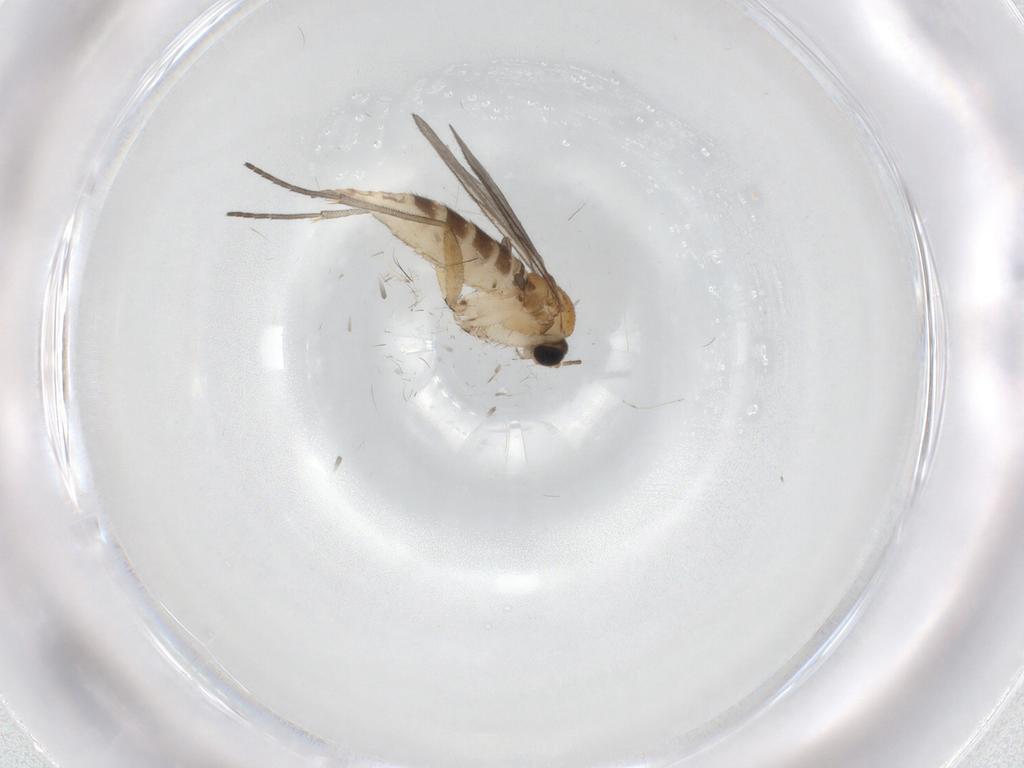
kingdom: Animalia
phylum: Arthropoda
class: Insecta
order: Diptera
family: Sciaridae
